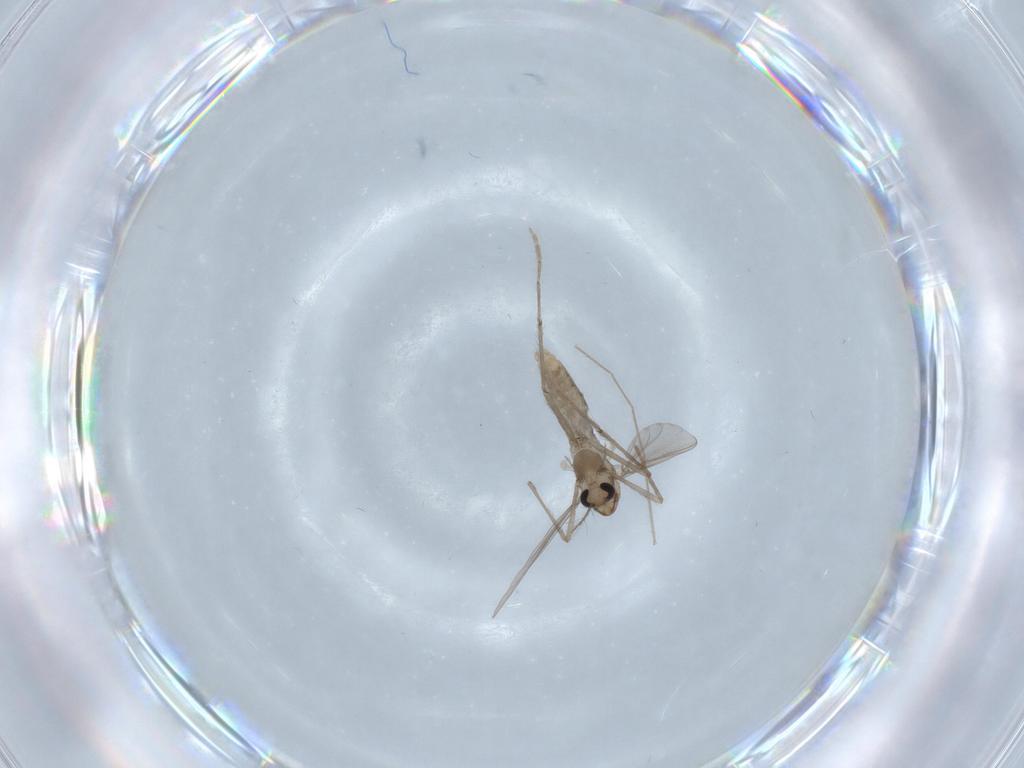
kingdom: Animalia
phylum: Arthropoda
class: Insecta
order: Diptera
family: Chironomidae
